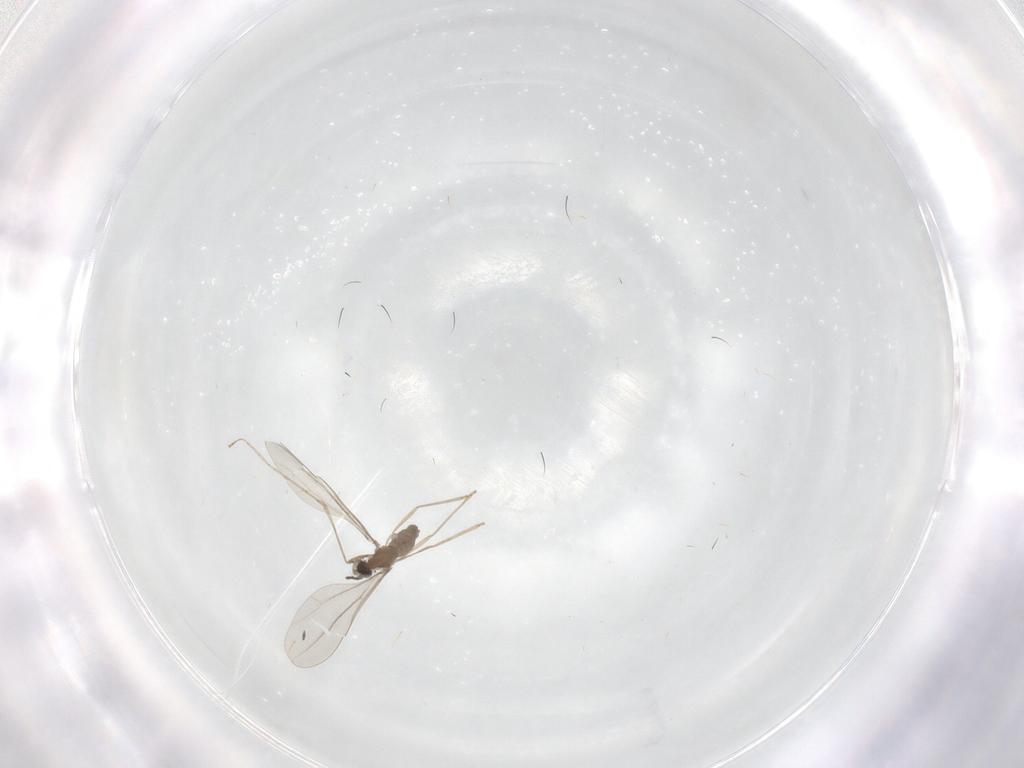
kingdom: Animalia
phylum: Arthropoda
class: Insecta
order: Diptera
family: Cecidomyiidae
